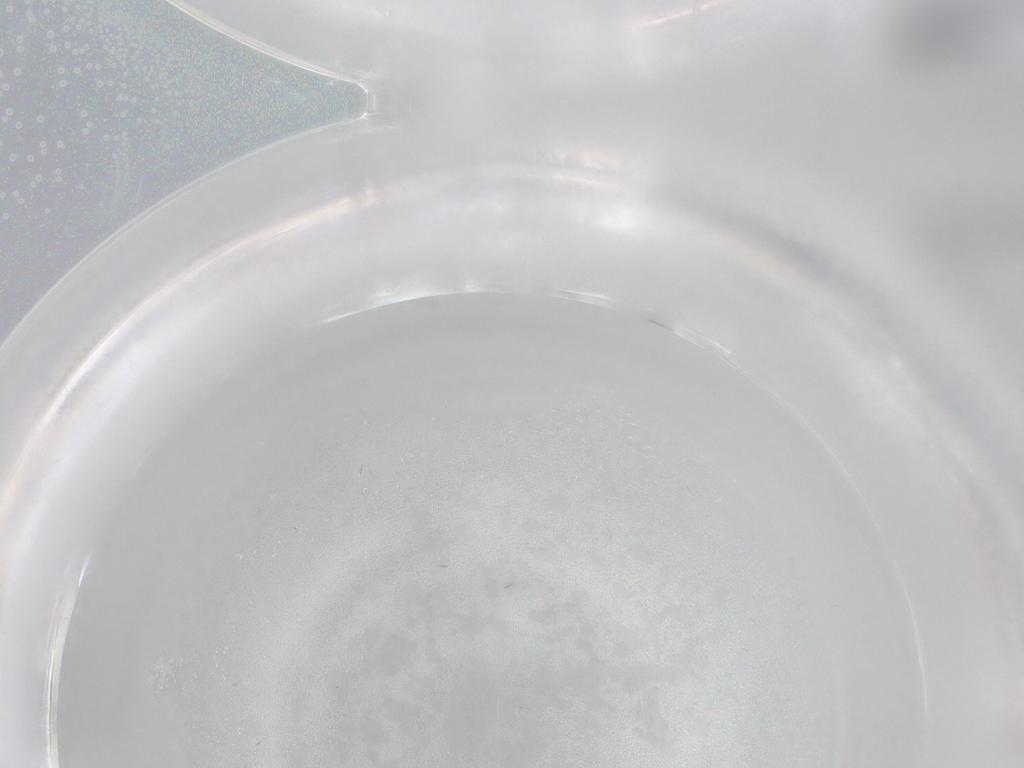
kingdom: Animalia
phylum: Arthropoda
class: Insecta
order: Diptera
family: Psychodidae
